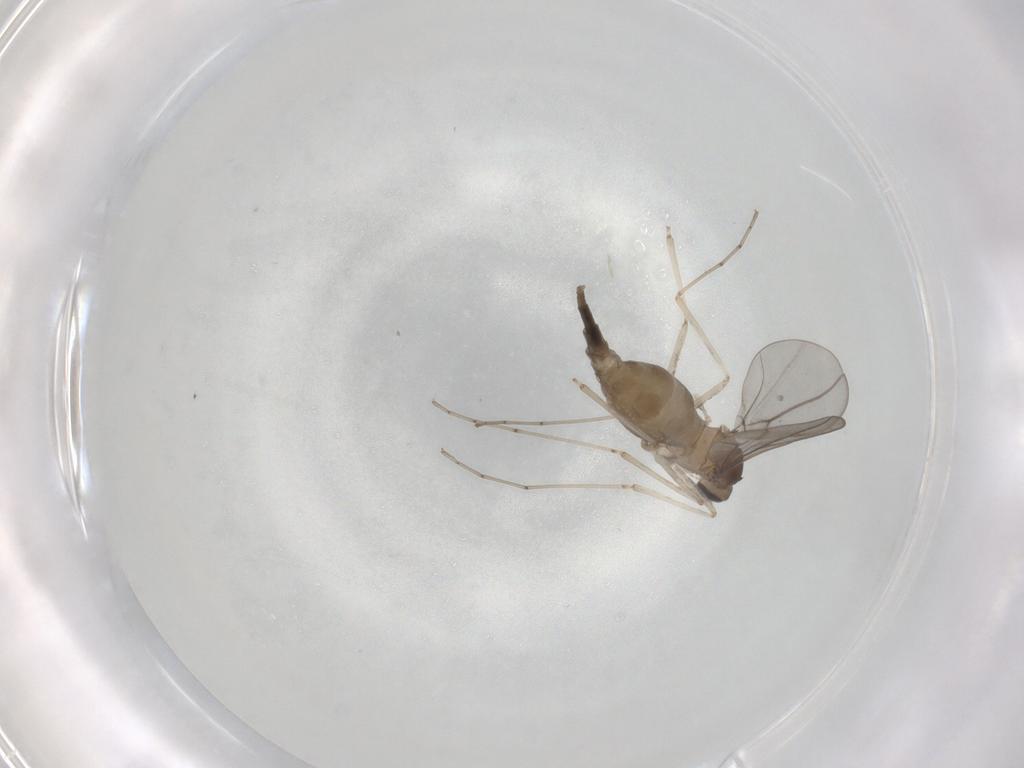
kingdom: Animalia
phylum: Arthropoda
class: Insecta
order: Diptera
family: Cecidomyiidae
